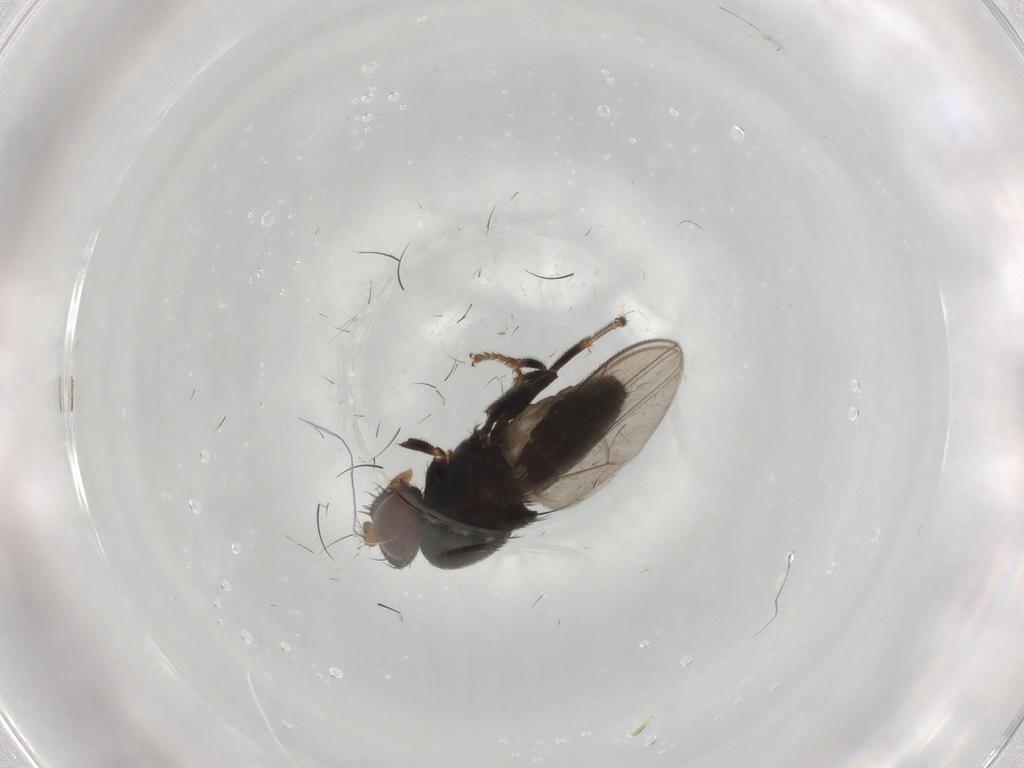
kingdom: Animalia
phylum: Arthropoda
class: Insecta
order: Diptera
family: Ephydridae
